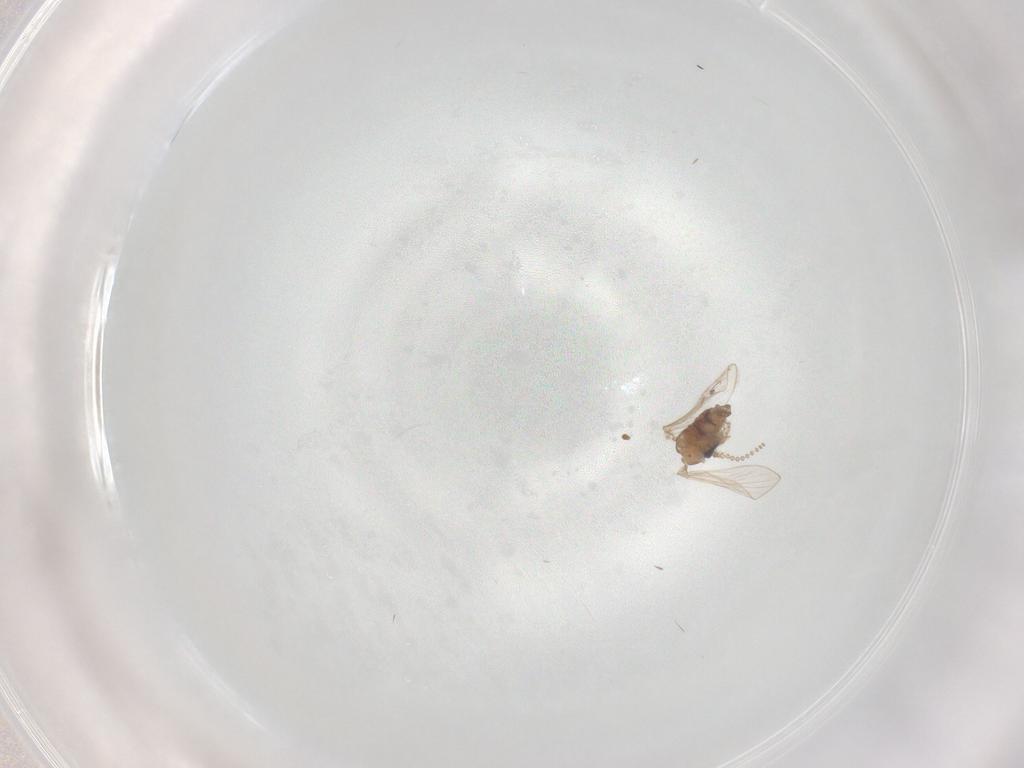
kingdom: Animalia
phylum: Arthropoda
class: Insecta
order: Diptera
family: Psychodidae
